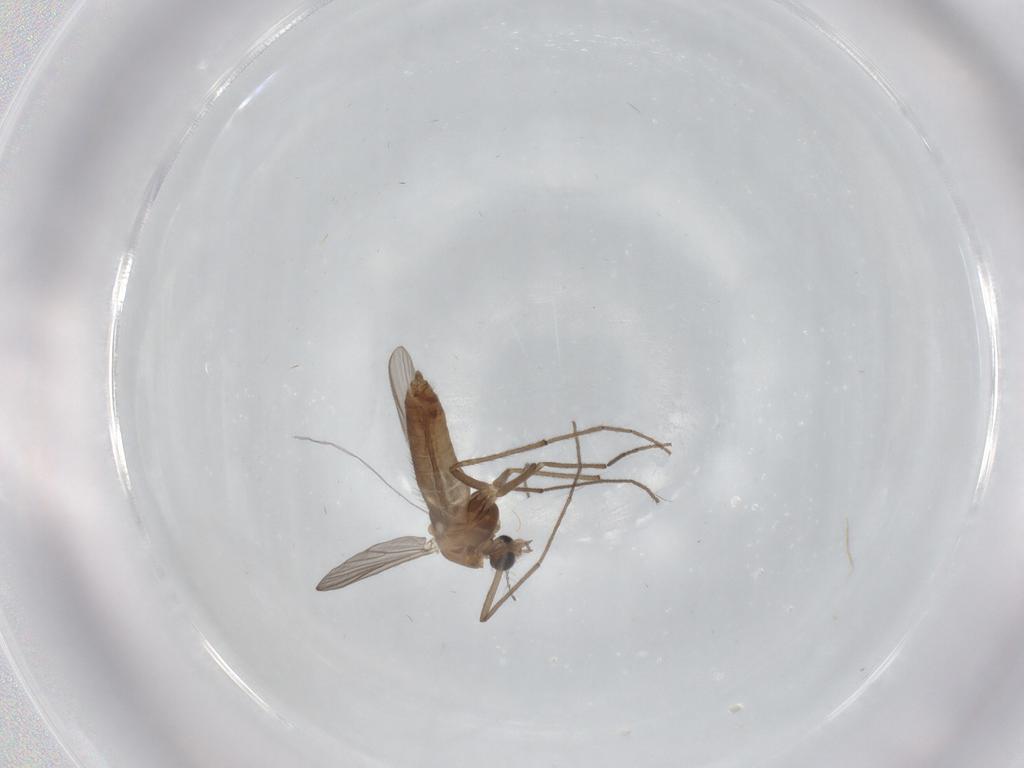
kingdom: Animalia
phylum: Arthropoda
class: Insecta
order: Diptera
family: Chironomidae
